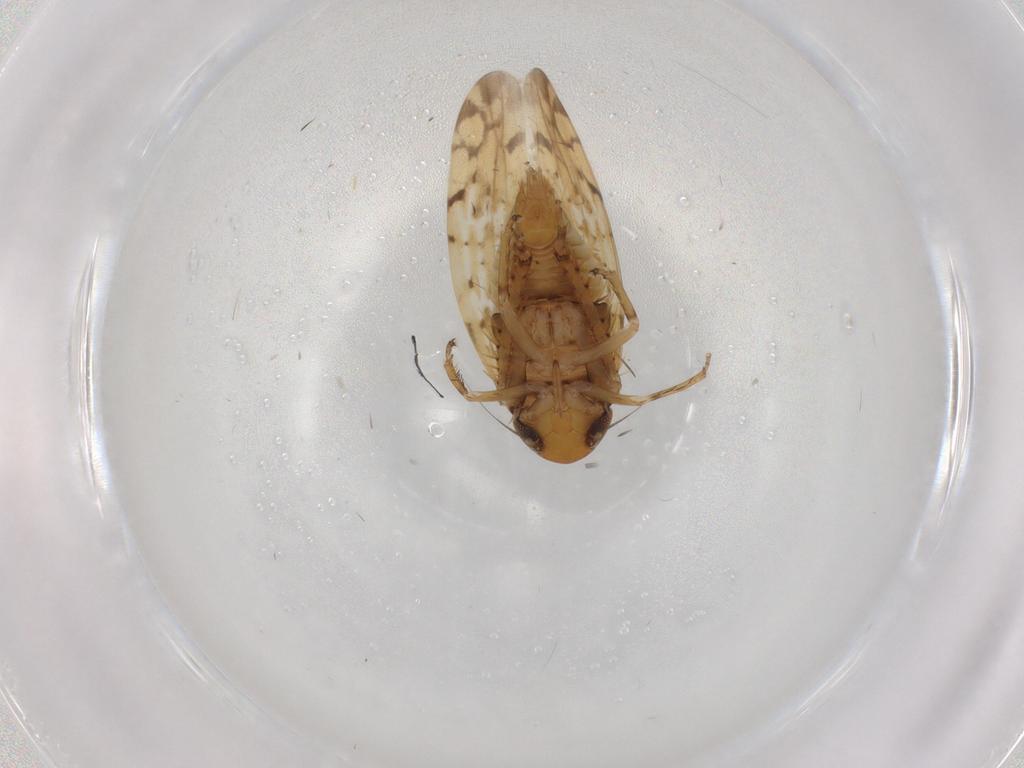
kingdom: Animalia
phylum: Arthropoda
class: Insecta
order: Hemiptera
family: Cicadellidae
